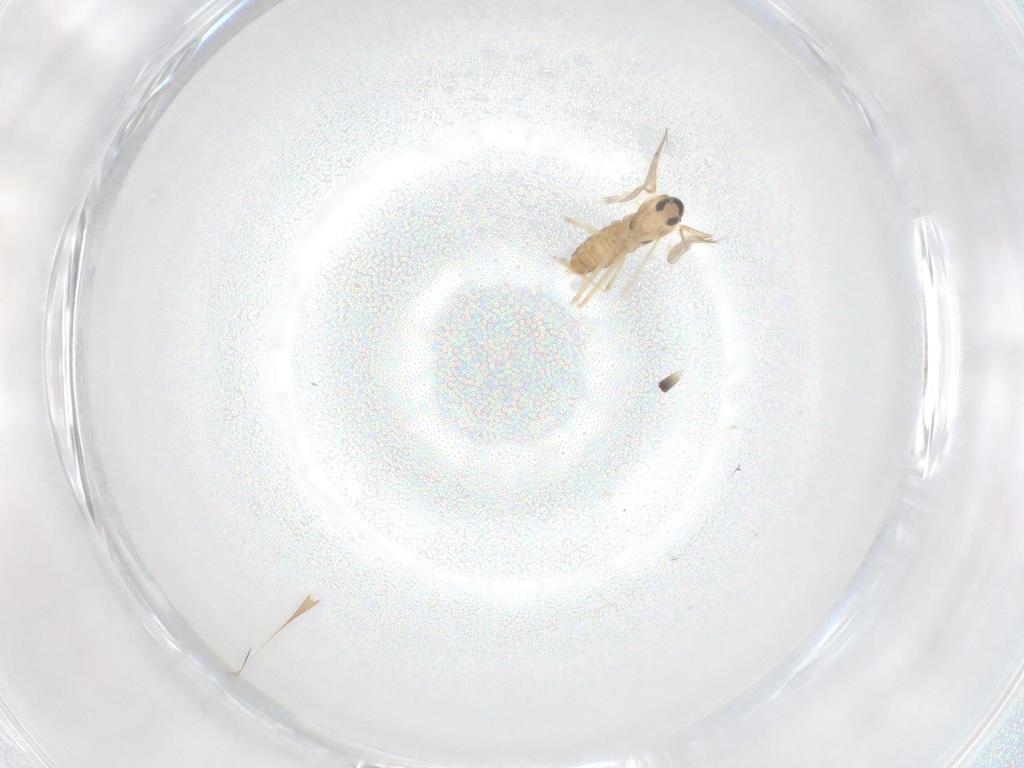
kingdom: Animalia
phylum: Arthropoda
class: Insecta
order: Diptera
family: Cecidomyiidae
